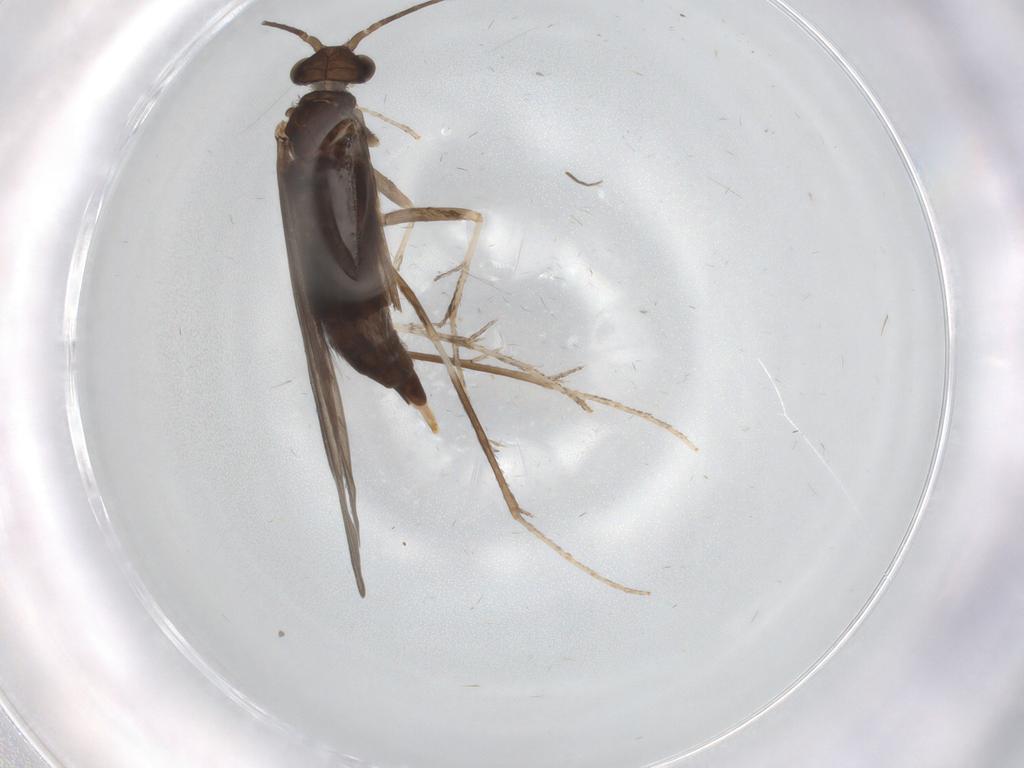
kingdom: Animalia
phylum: Arthropoda
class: Insecta
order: Trichoptera
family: Xiphocentronidae
